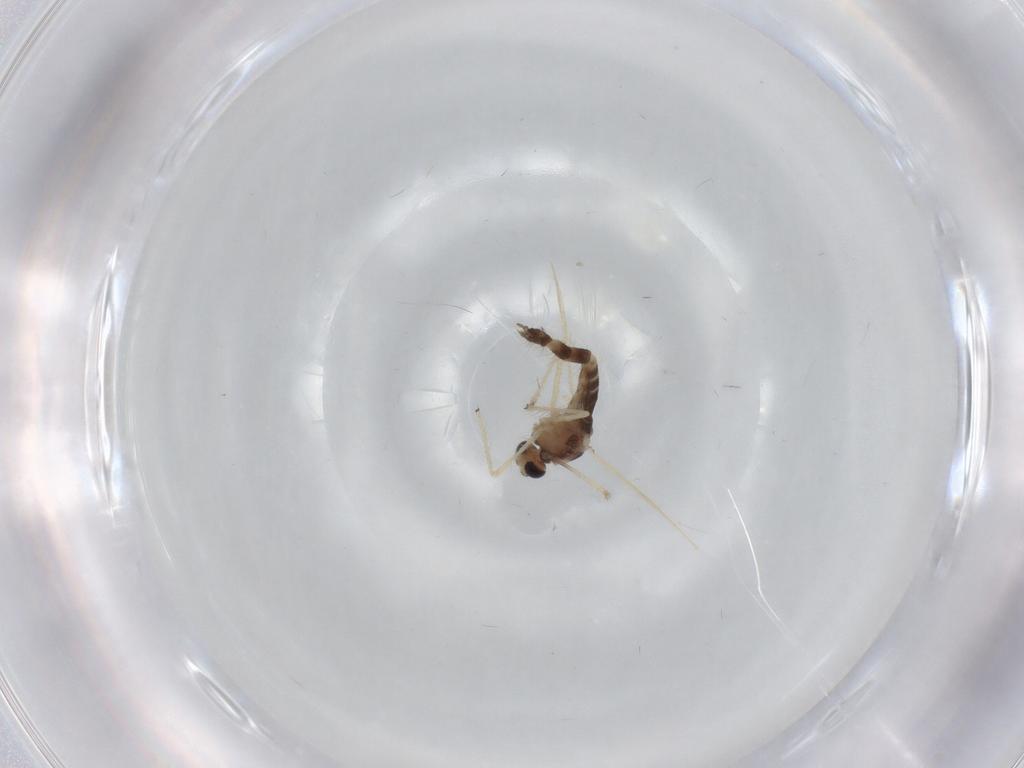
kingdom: Animalia
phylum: Arthropoda
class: Insecta
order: Diptera
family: Chironomidae
